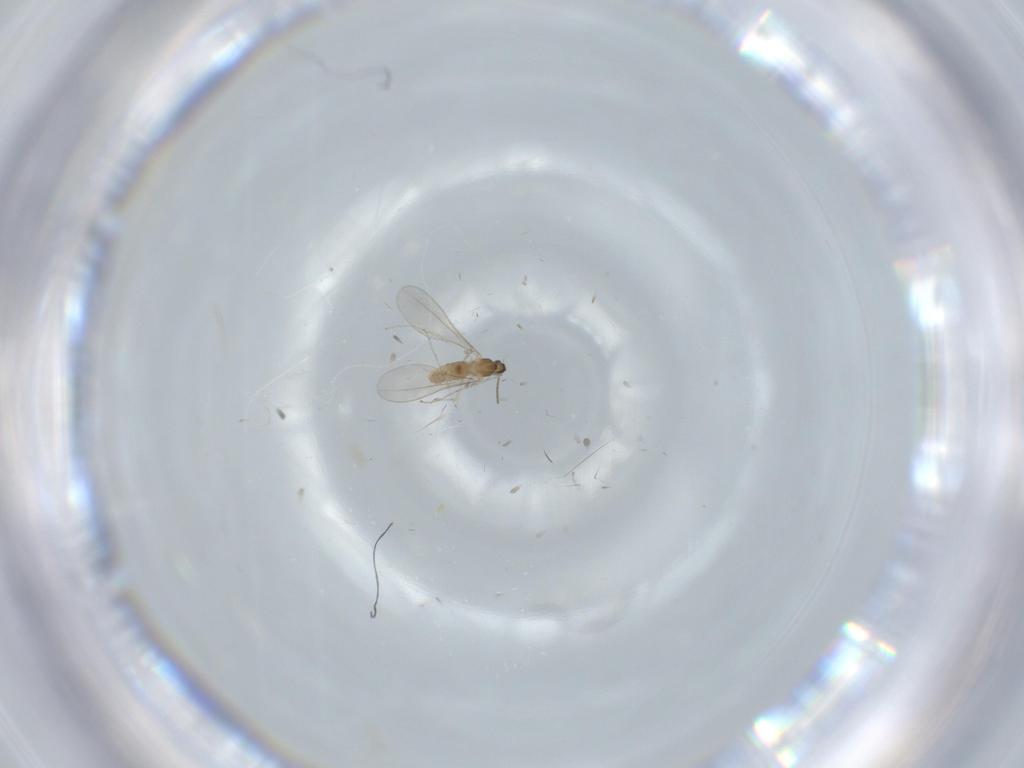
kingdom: Animalia
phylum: Arthropoda
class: Insecta
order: Diptera
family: Cecidomyiidae
